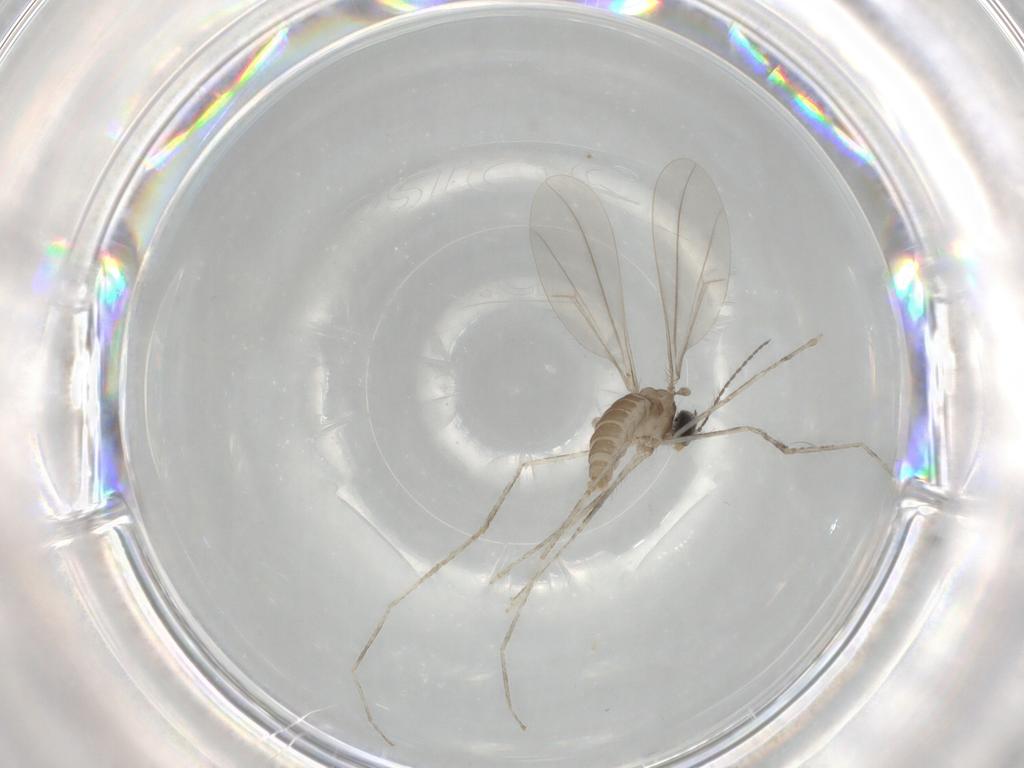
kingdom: Animalia
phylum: Arthropoda
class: Insecta
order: Diptera
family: Cecidomyiidae
